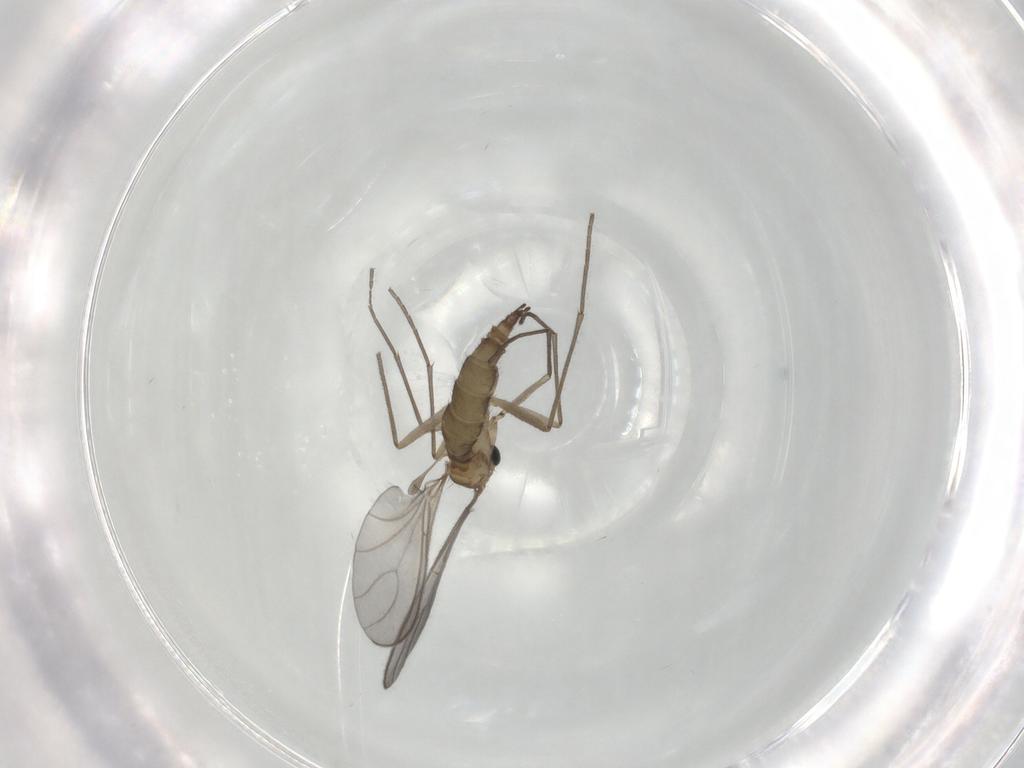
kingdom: Animalia
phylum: Arthropoda
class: Insecta
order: Diptera
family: Sciaridae
